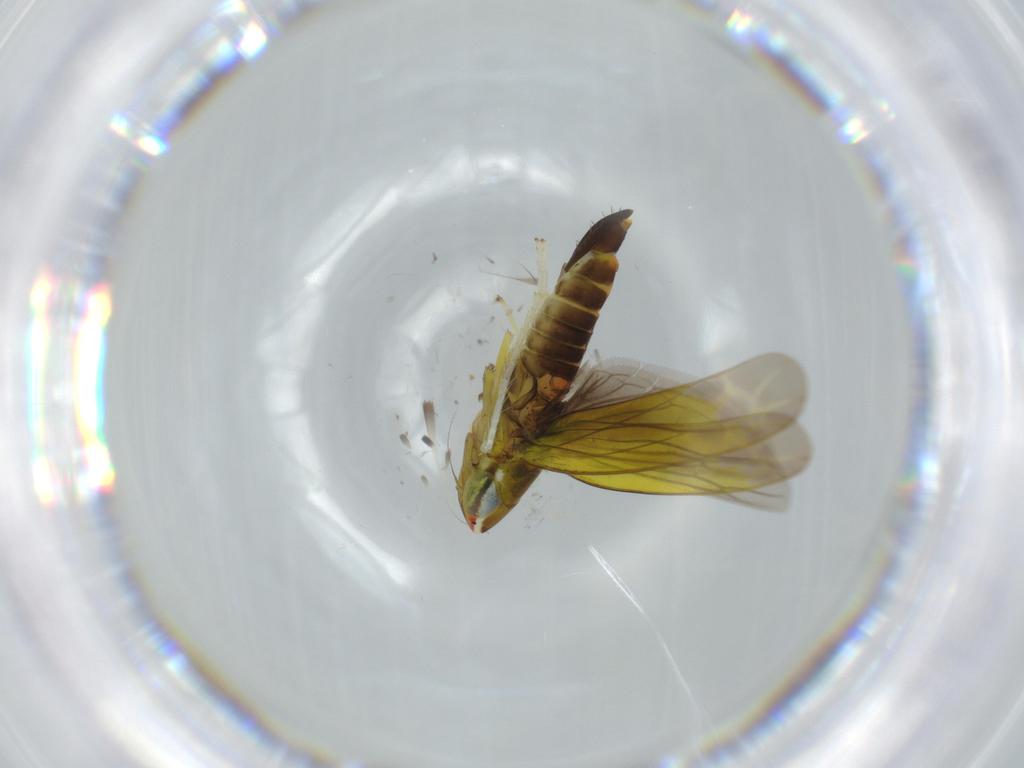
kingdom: Animalia
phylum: Arthropoda
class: Insecta
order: Hemiptera
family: Cicadellidae
